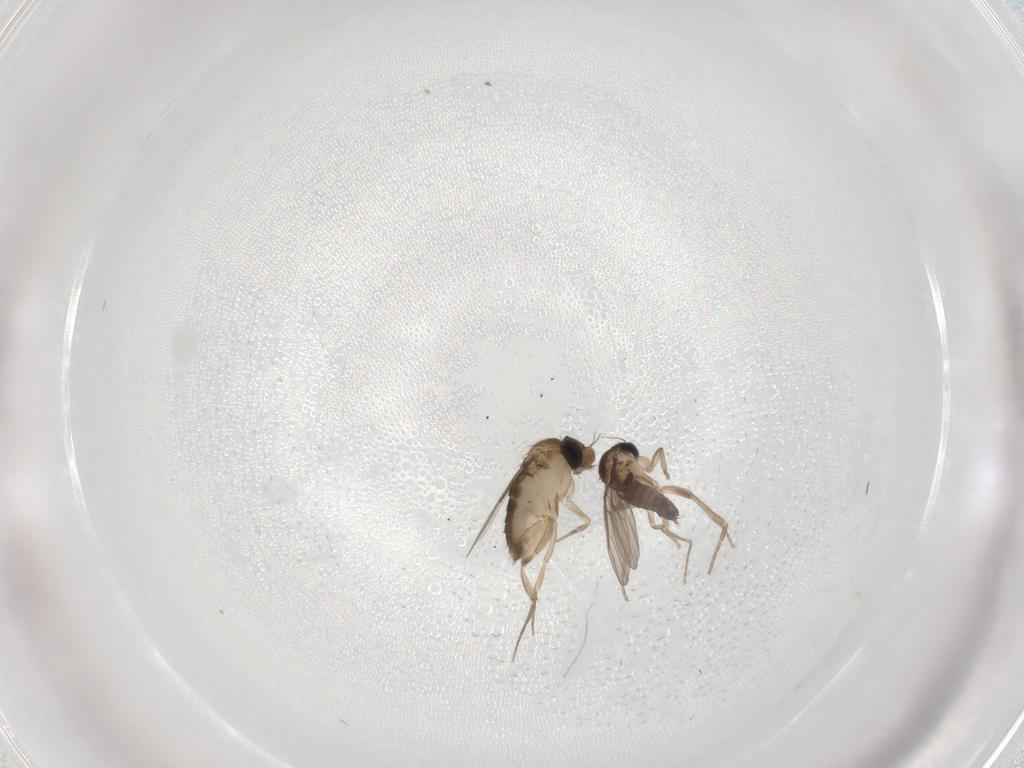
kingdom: Animalia
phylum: Arthropoda
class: Insecta
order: Diptera
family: Phoridae
